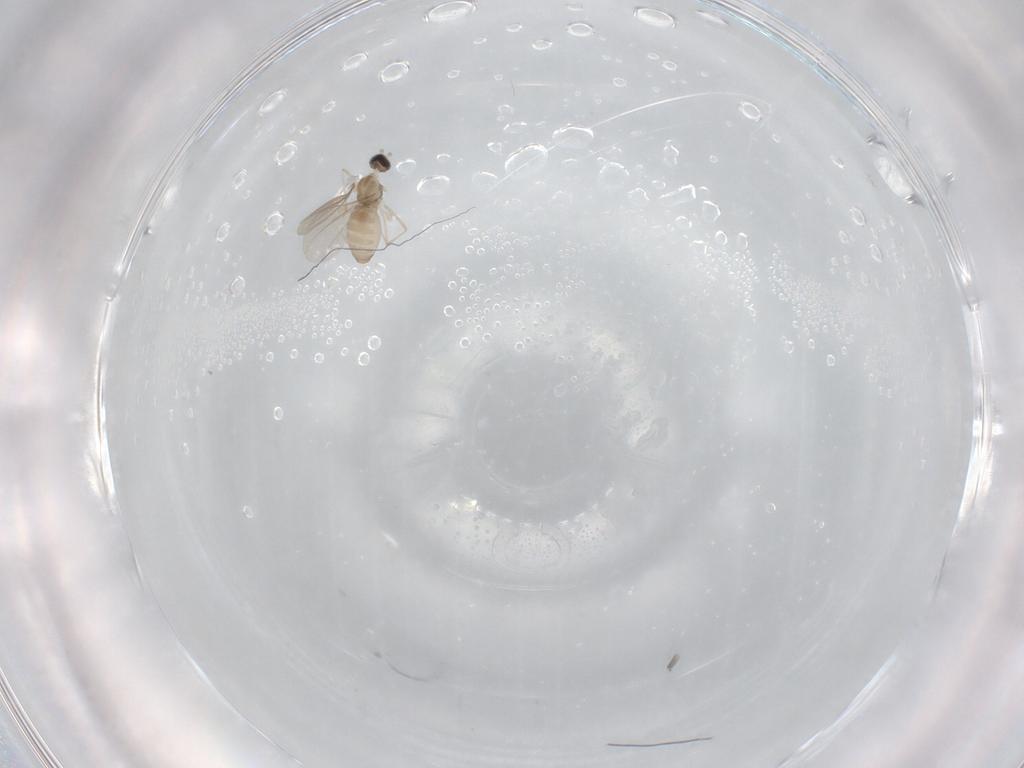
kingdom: Animalia
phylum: Arthropoda
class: Insecta
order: Diptera
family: Cecidomyiidae
